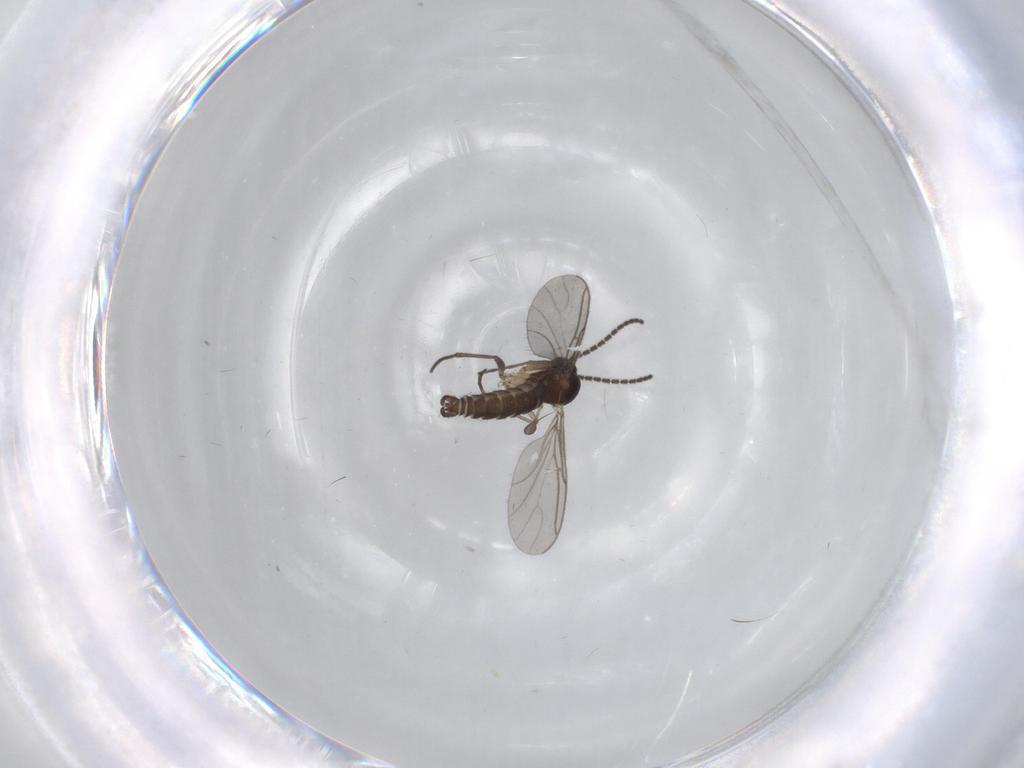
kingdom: Animalia
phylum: Arthropoda
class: Insecta
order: Diptera
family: Sciaridae
